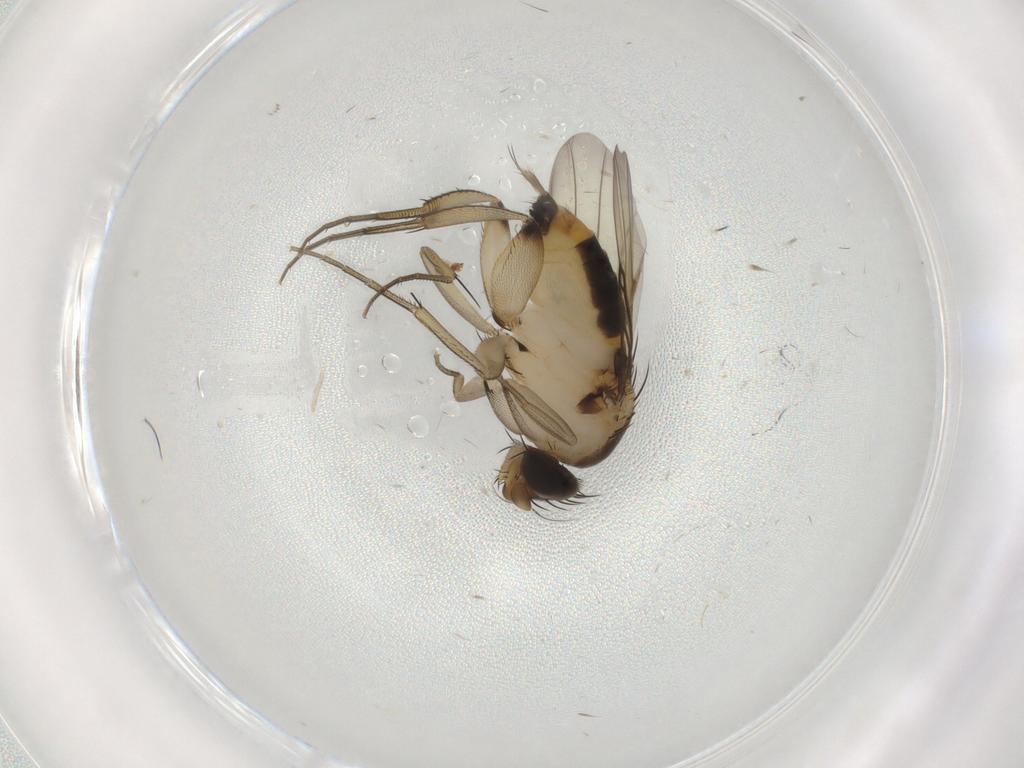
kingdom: Animalia
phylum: Arthropoda
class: Insecta
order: Diptera
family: Phoridae
